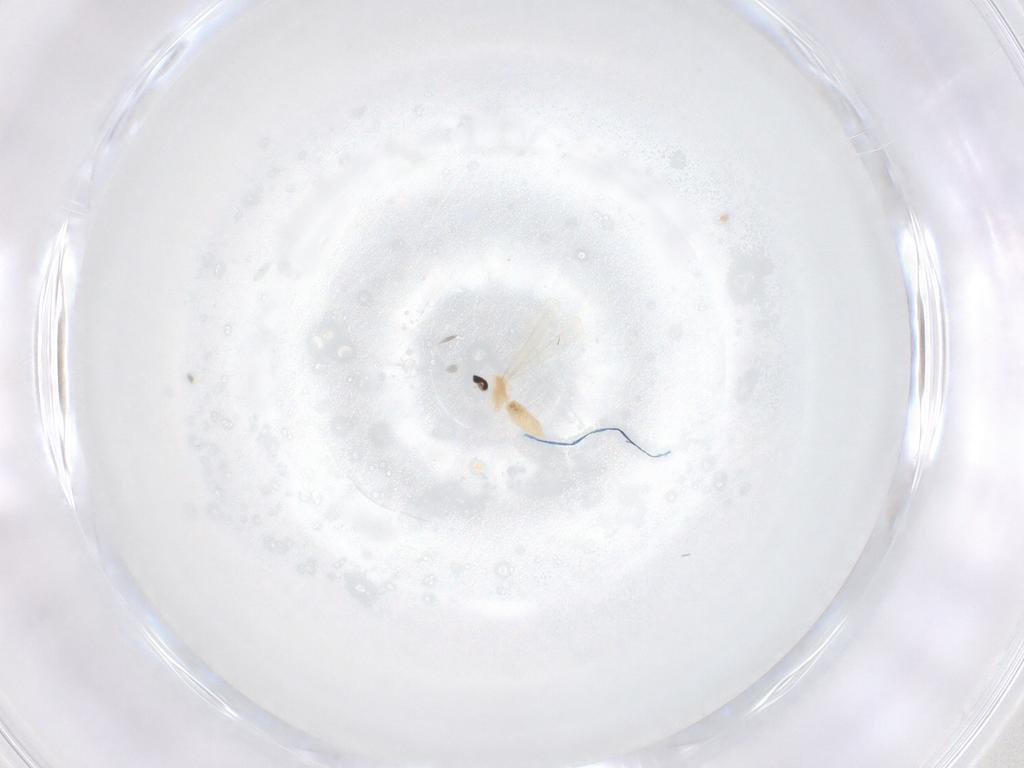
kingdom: Animalia
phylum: Arthropoda
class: Insecta
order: Diptera
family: Cecidomyiidae
